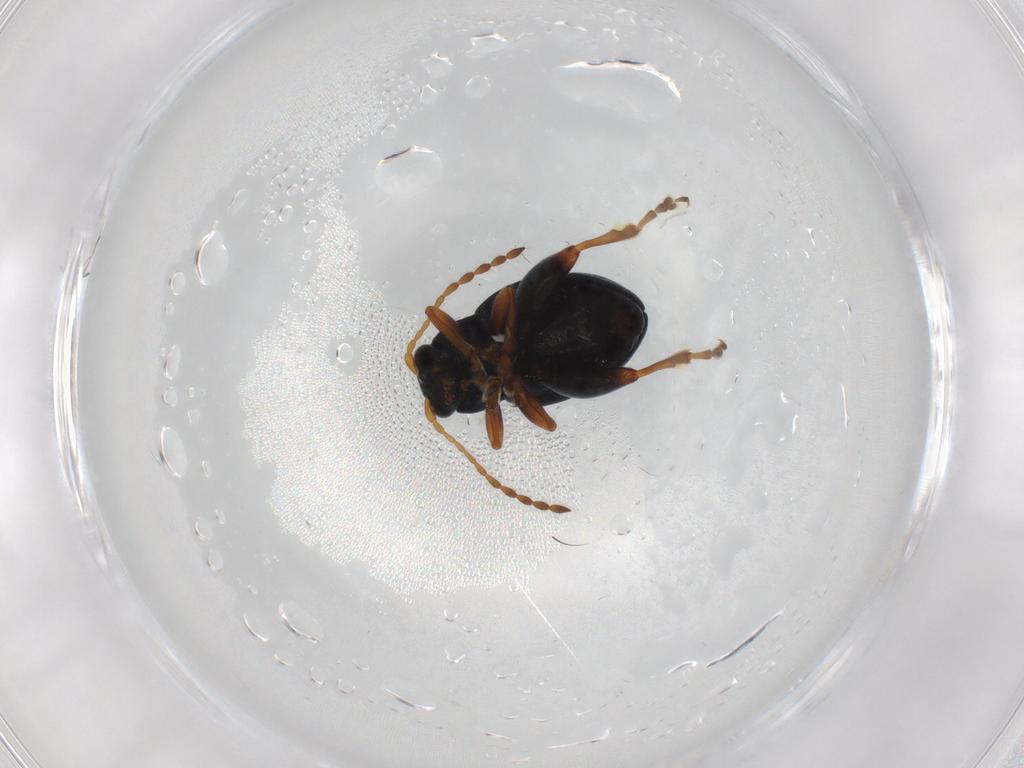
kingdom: Animalia
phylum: Arthropoda
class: Insecta
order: Coleoptera
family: Chrysomelidae
